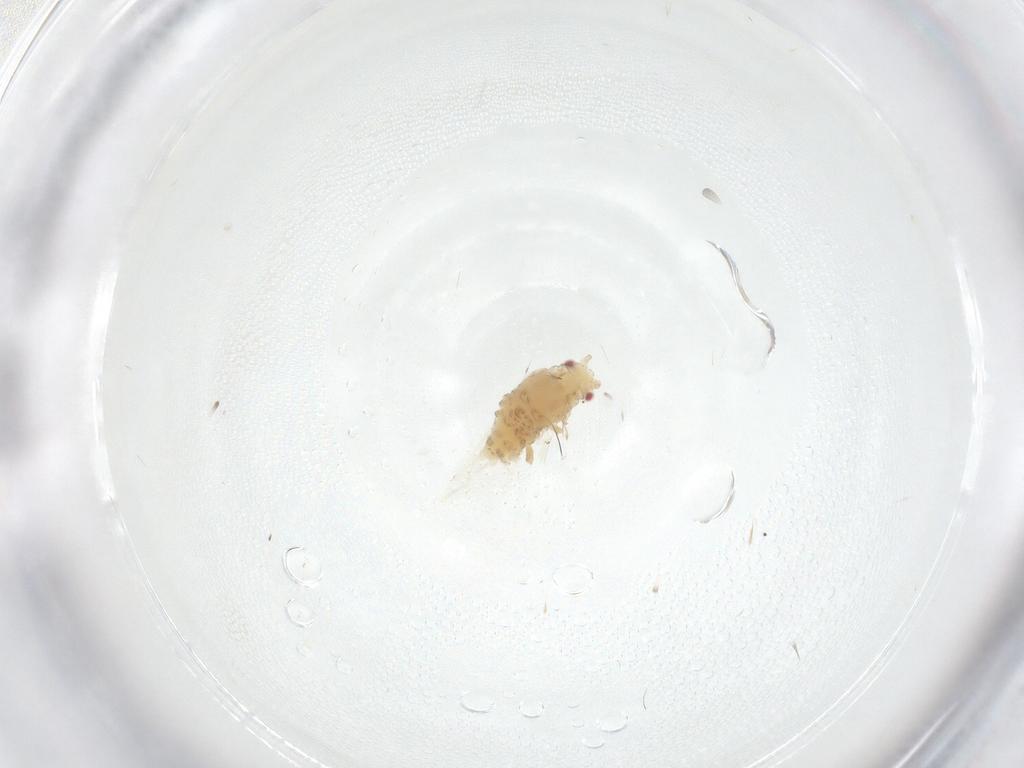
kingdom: Animalia
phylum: Arthropoda
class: Insecta
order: Hemiptera
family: Aphididae
